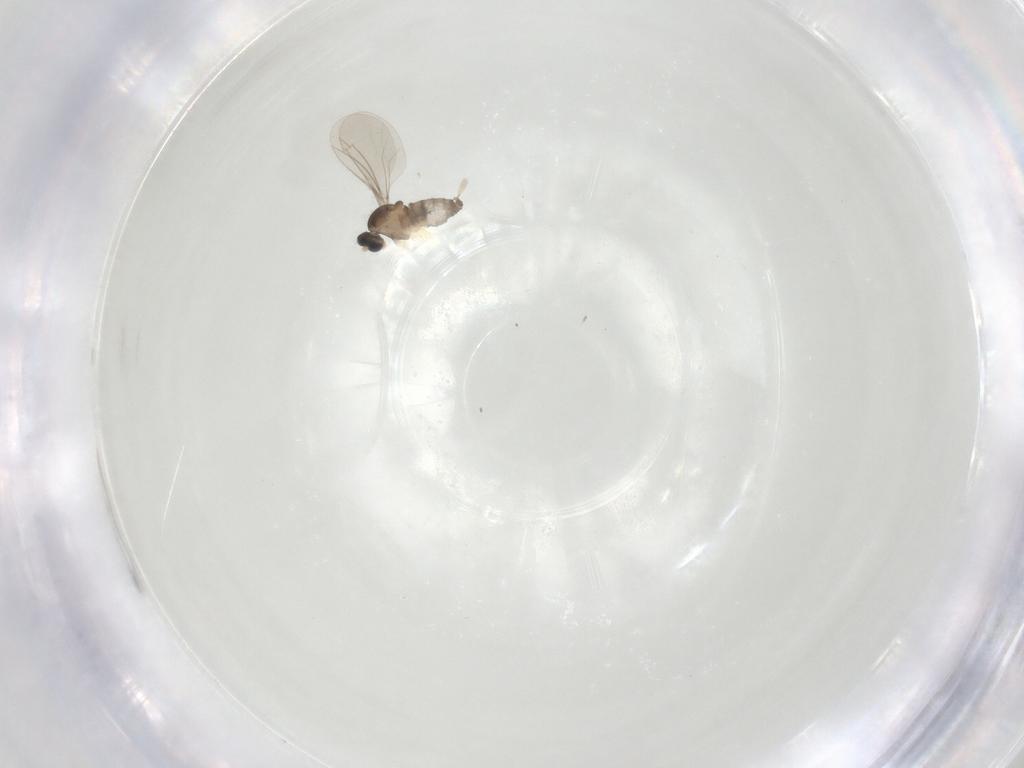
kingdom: Animalia
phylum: Arthropoda
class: Insecta
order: Diptera
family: Cecidomyiidae
